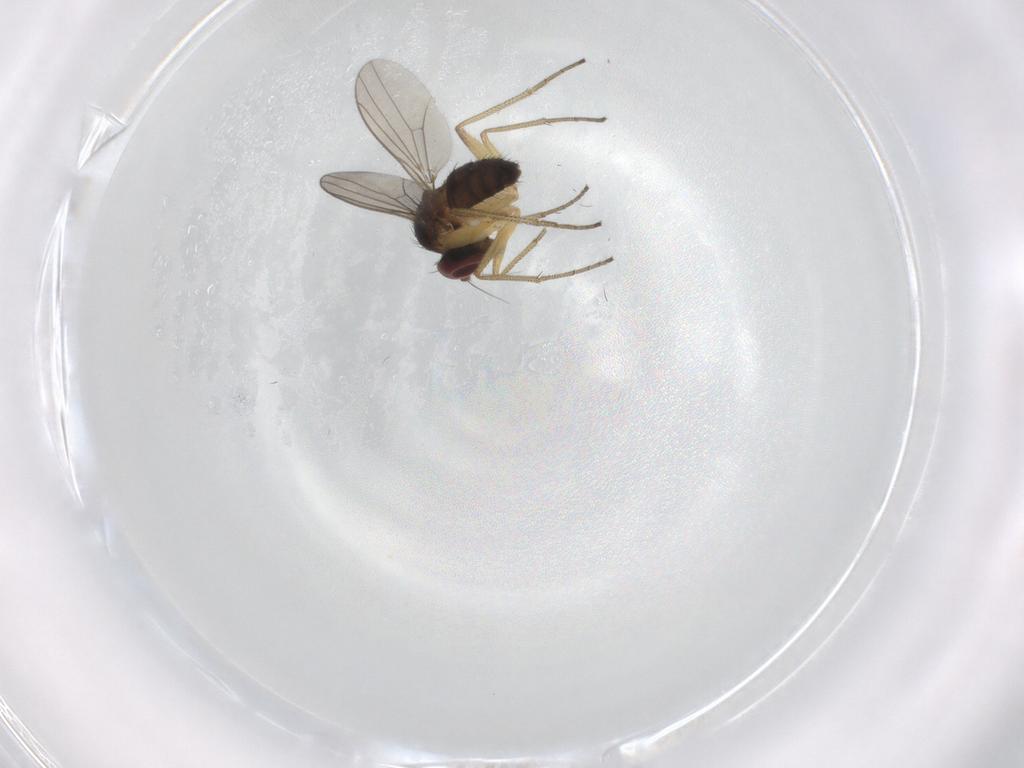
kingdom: Animalia
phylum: Arthropoda
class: Insecta
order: Diptera
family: Dolichopodidae
